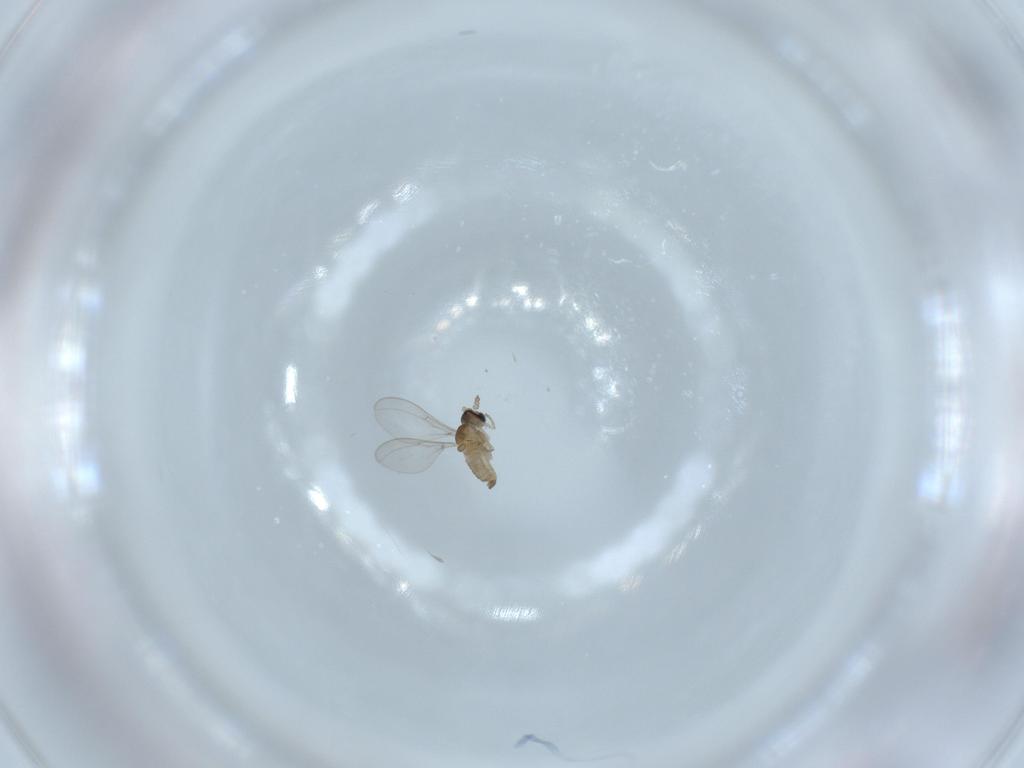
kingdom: Animalia
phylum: Arthropoda
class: Insecta
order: Diptera
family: Cecidomyiidae
